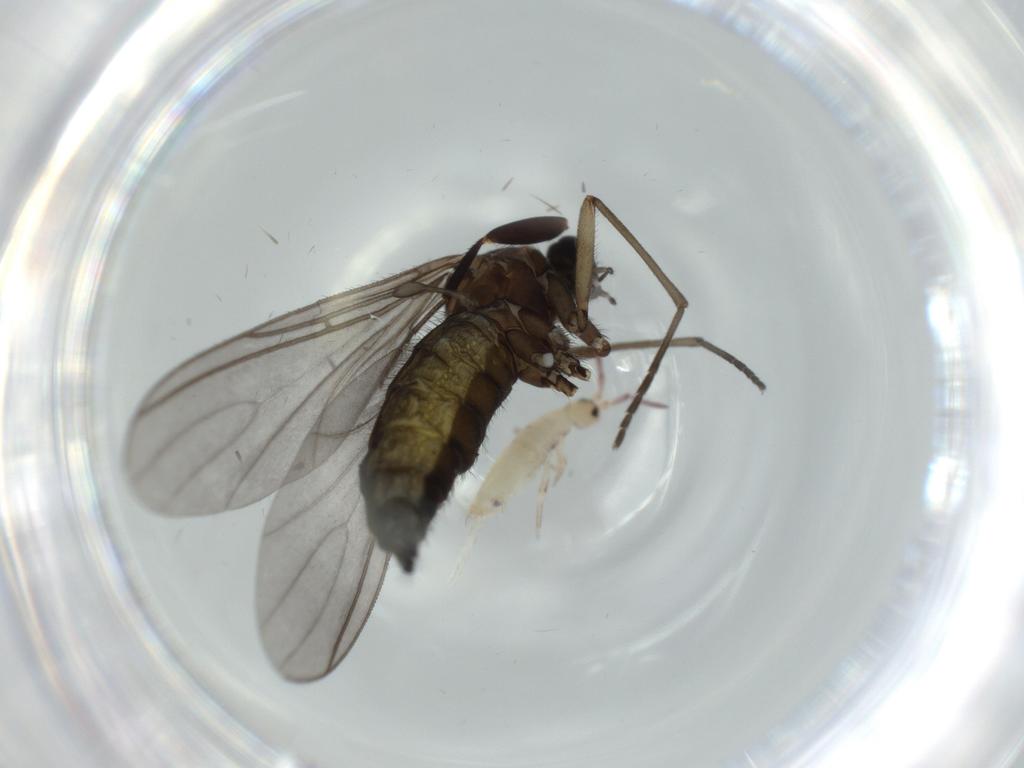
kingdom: Animalia
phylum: Arthropoda
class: Insecta
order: Diptera
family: Sciaridae
